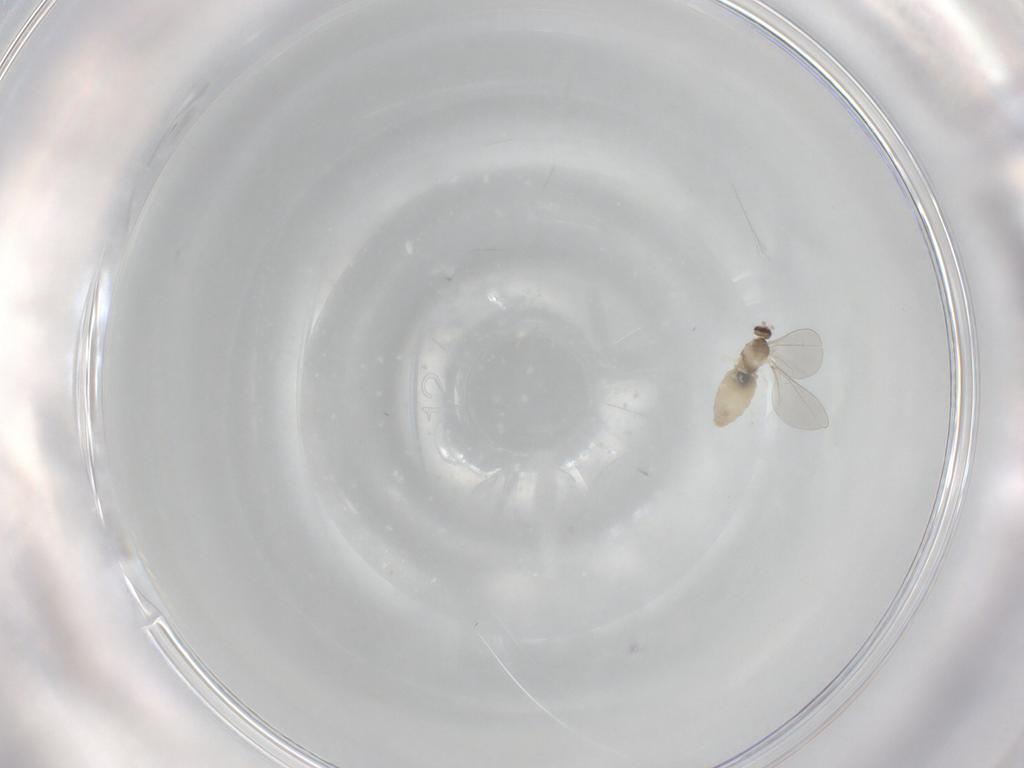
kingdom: Animalia
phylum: Arthropoda
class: Insecta
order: Diptera
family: Cecidomyiidae
